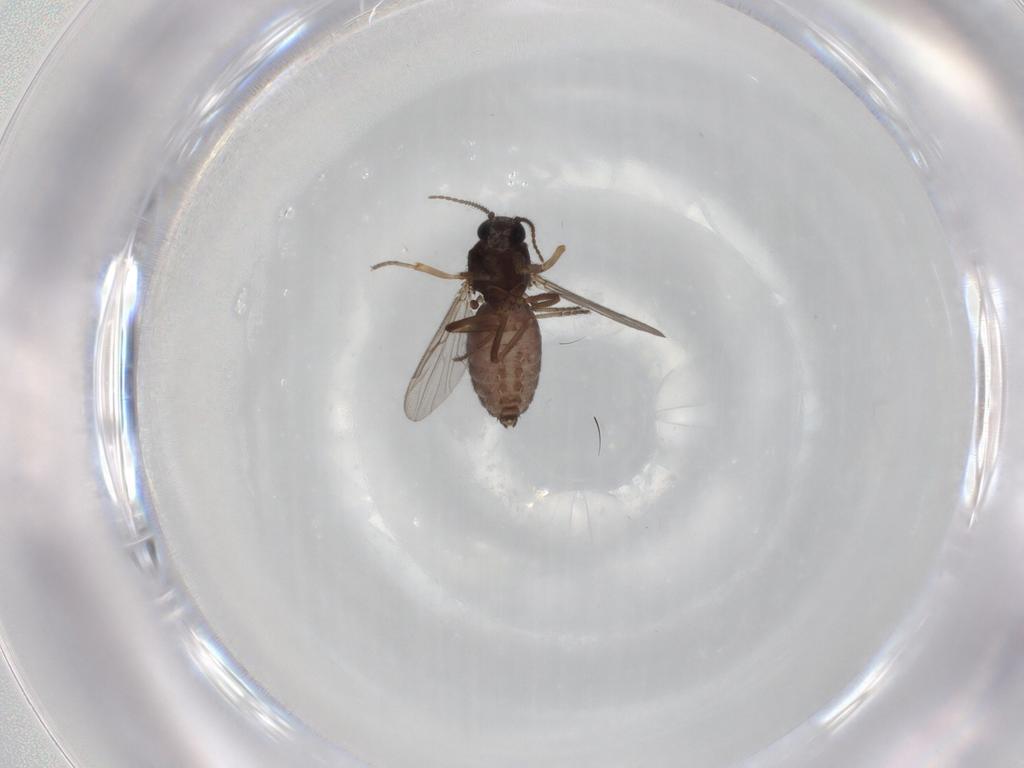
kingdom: Animalia
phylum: Arthropoda
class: Insecta
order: Diptera
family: Ceratopogonidae
